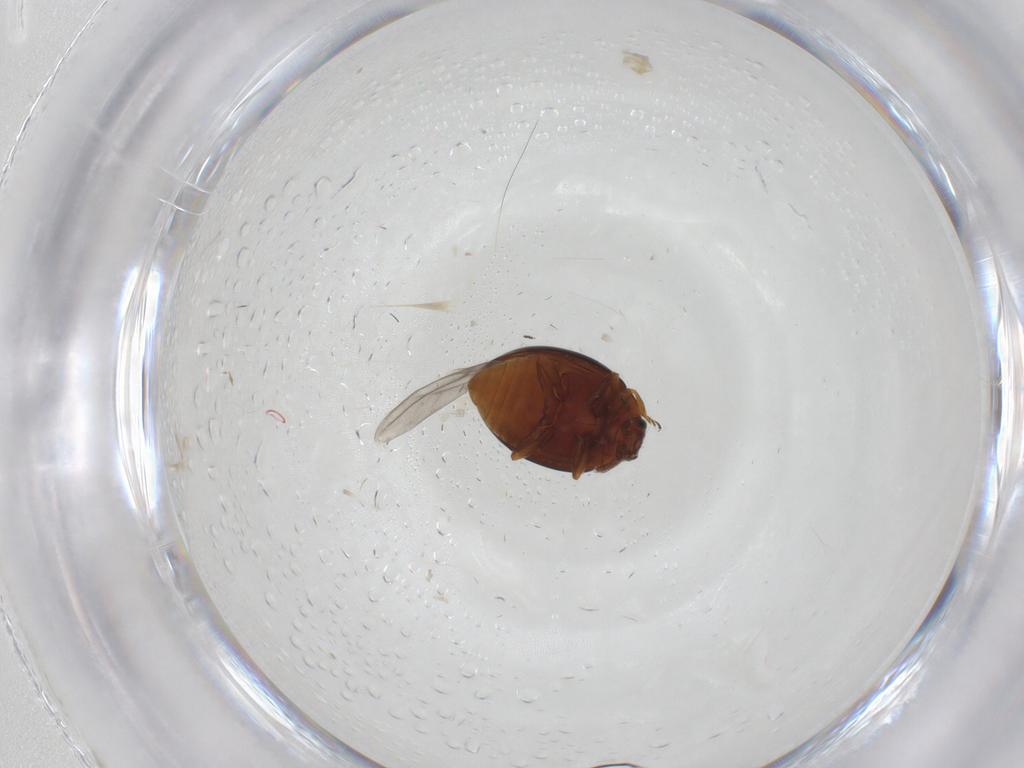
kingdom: Animalia
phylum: Arthropoda
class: Insecta
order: Coleoptera
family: Coccinellidae
